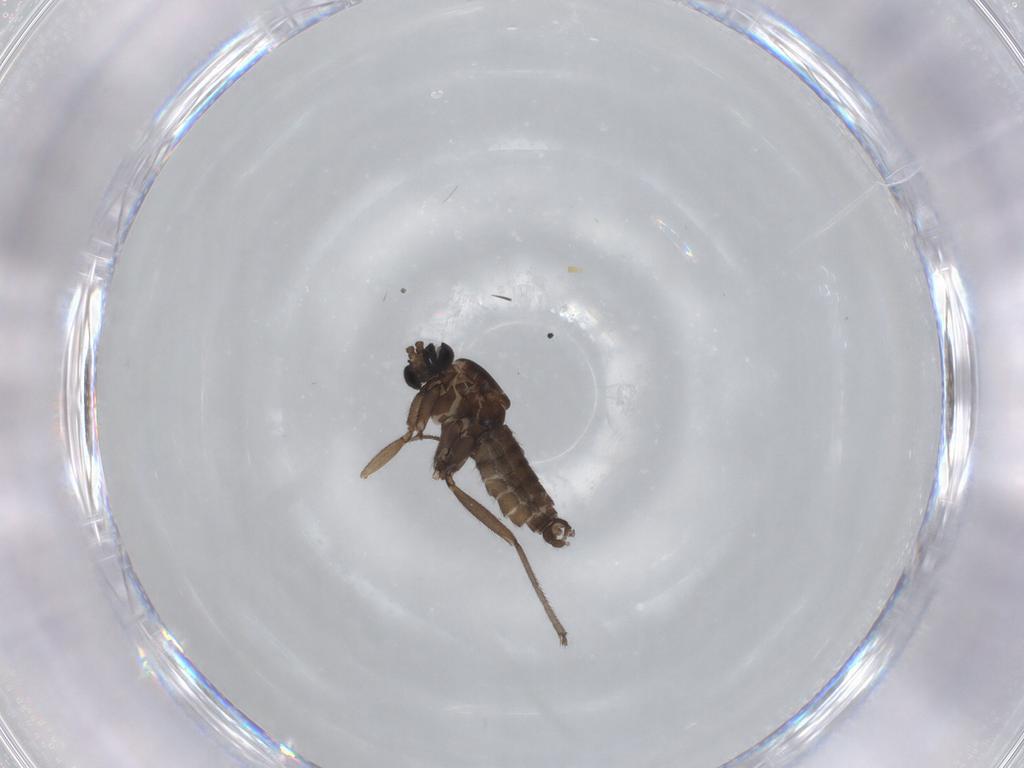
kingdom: Animalia
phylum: Arthropoda
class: Insecta
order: Diptera
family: Sciaridae
